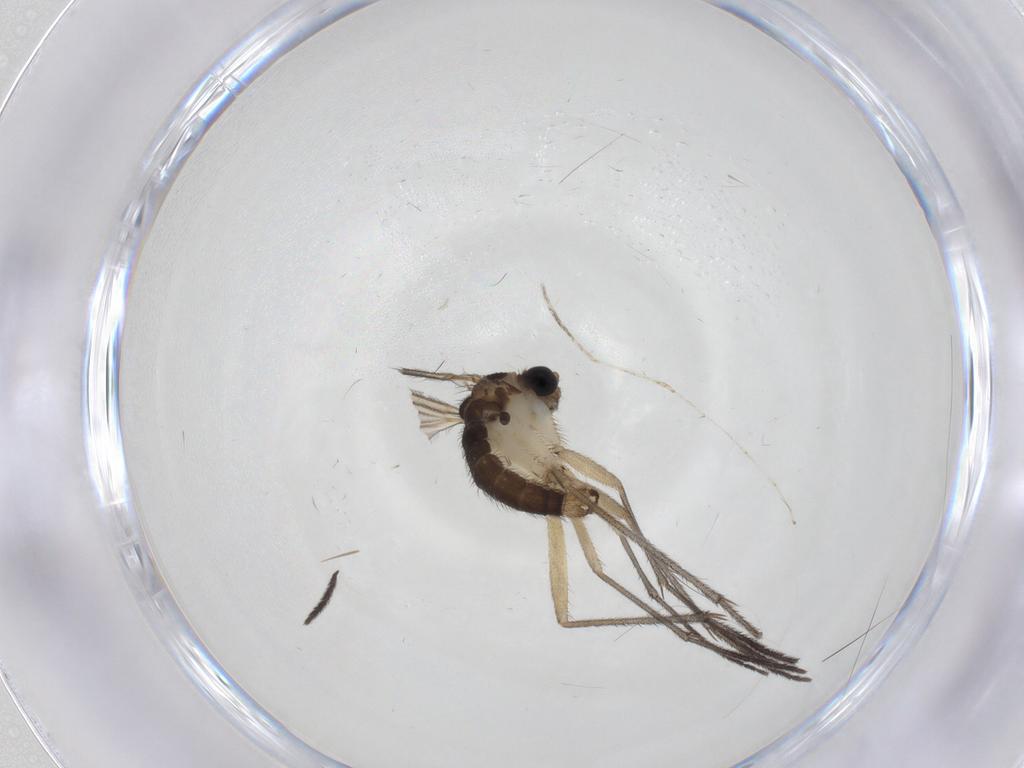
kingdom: Animalia
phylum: Arthropoda
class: Insecta
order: Diptera
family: Sciaridae
